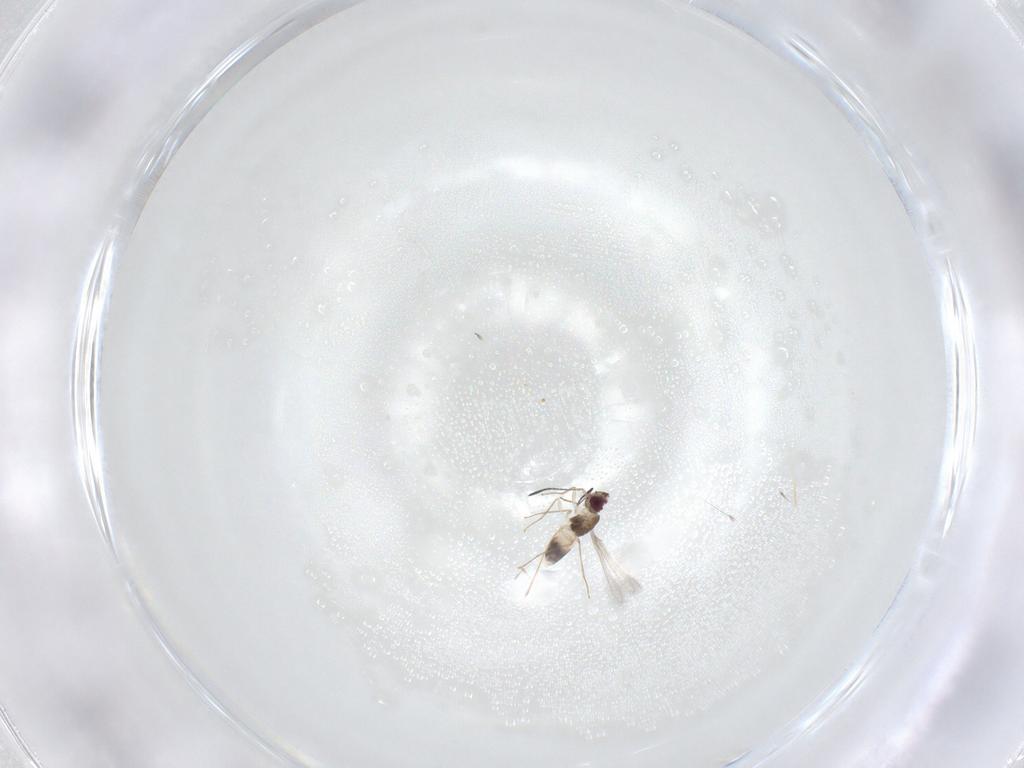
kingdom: Animalia
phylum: Arthropoda
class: Insecta
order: Hymenoptera
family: Mymaridae
